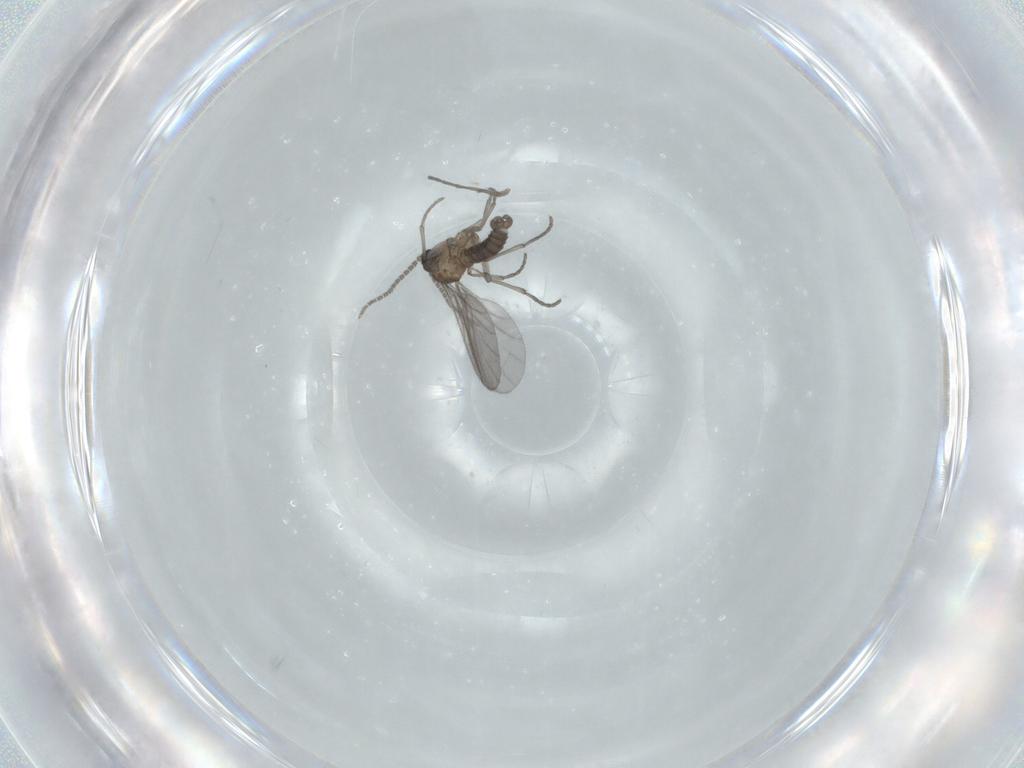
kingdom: Animalia
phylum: Arthropoda
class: Insecta
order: Diptera
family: Sciaridae
